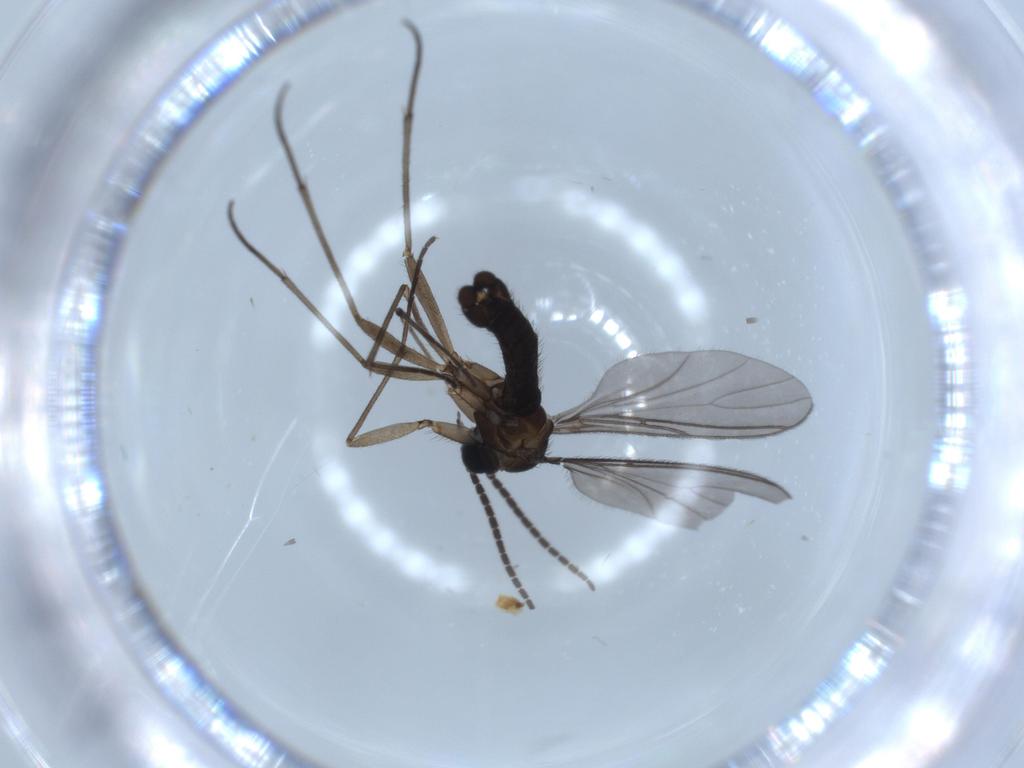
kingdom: Animalia
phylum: Arthropoda
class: Insecta
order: Diptera
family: Sciaridae
